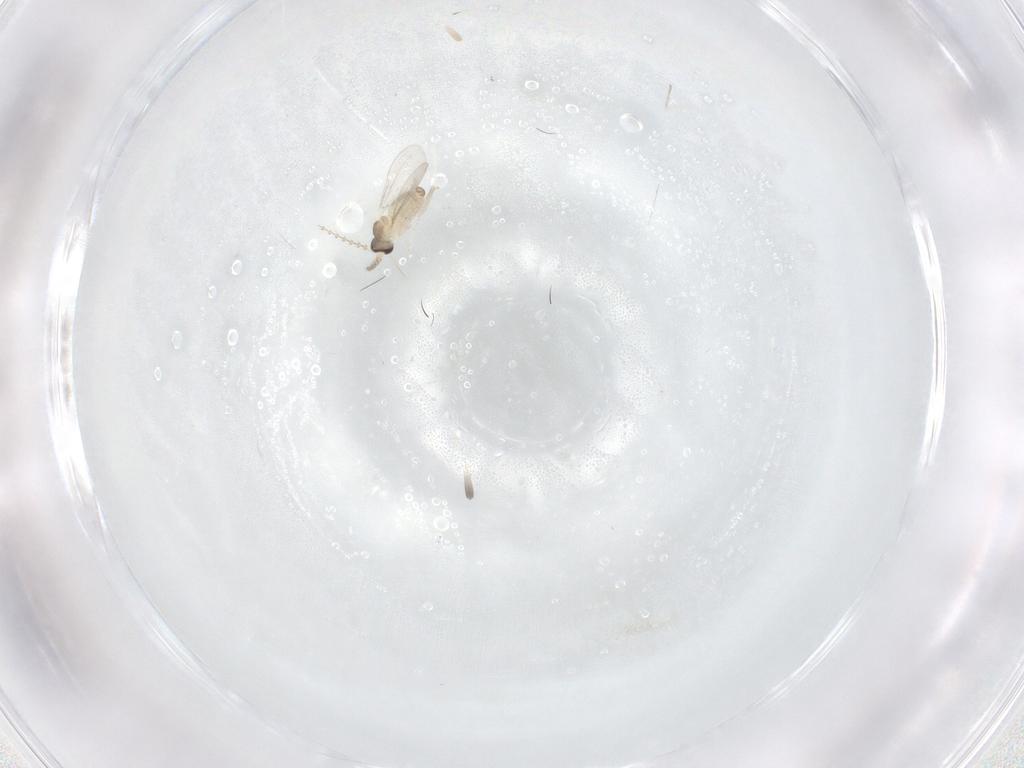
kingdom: Animalia
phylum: Arthropoda
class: Insecta
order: Diptera
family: Cecidomyiidae
